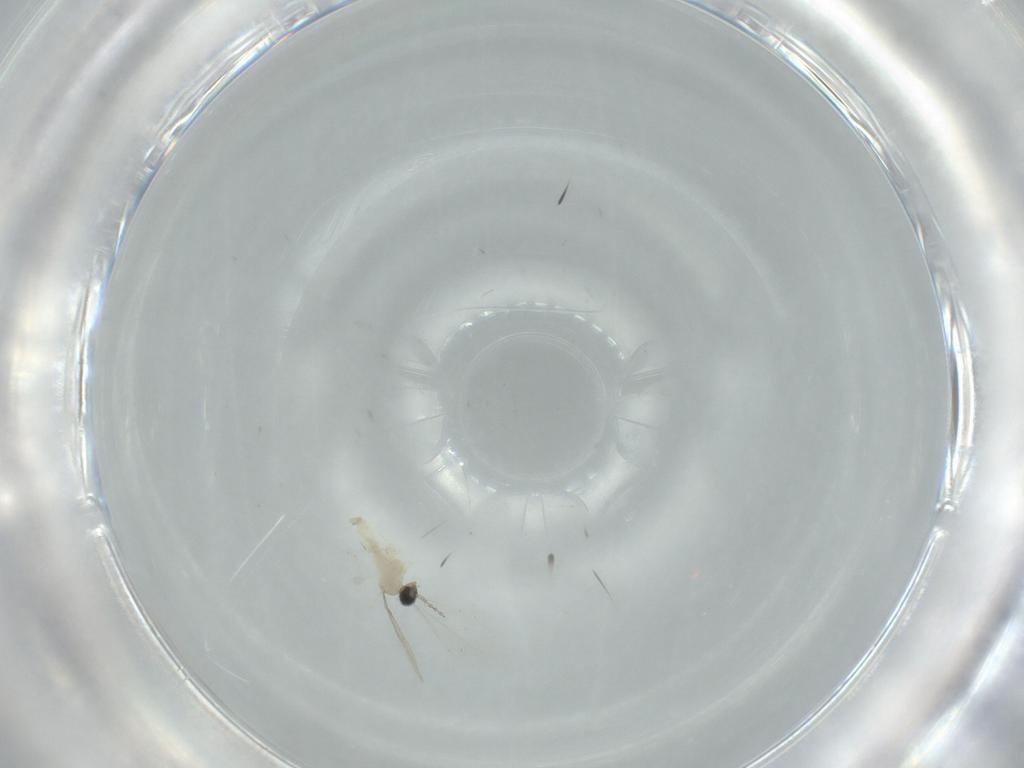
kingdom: Animalia
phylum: Arthropoda
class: Insecta
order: Diptera
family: Cecidomyiidae
